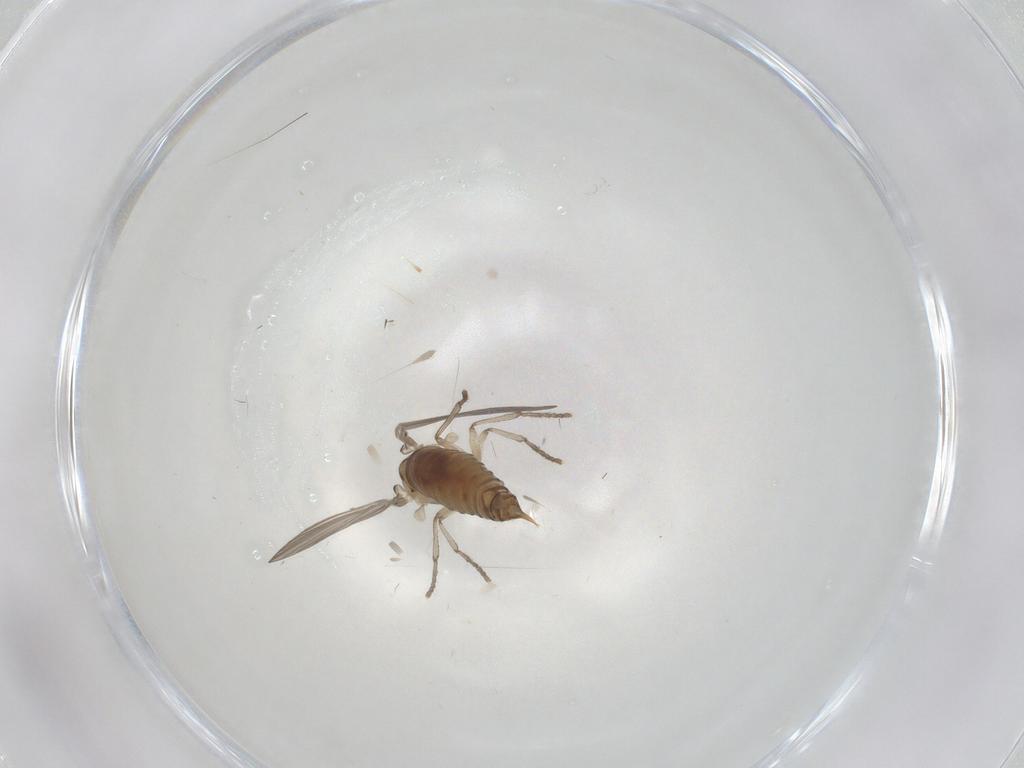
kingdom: Animalia
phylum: Arthropoda
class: Insecta
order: Diptera
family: Psychodidae
